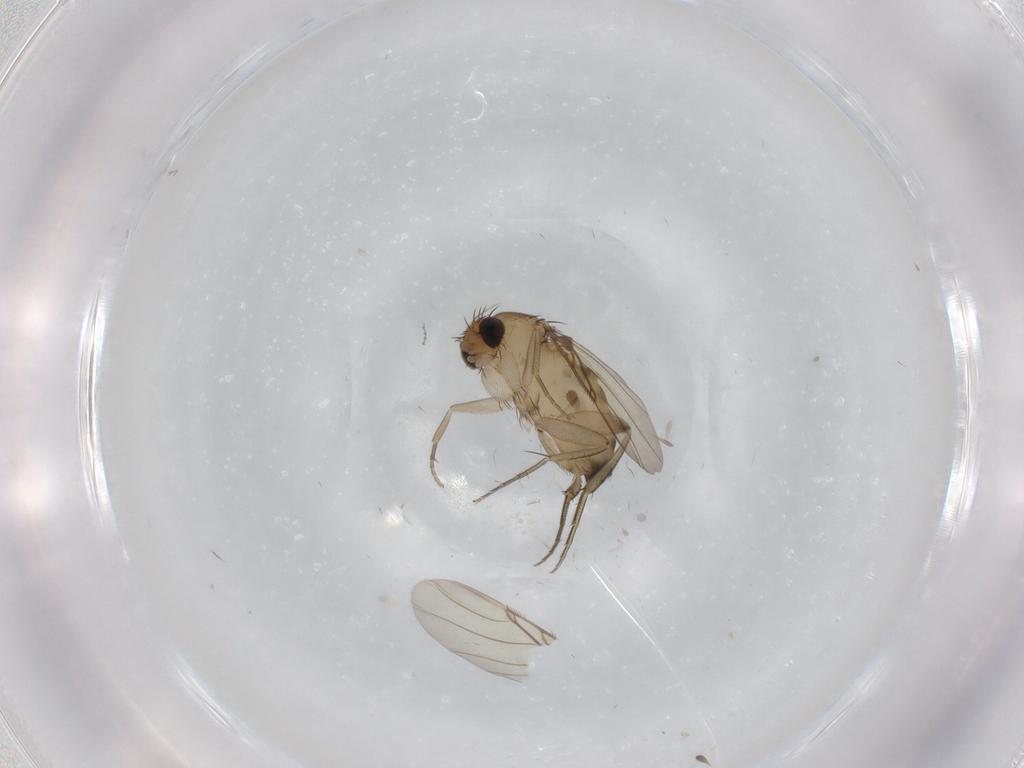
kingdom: Animalia
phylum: Arthropoda
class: Insecta
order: Diptera
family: Phoridae
